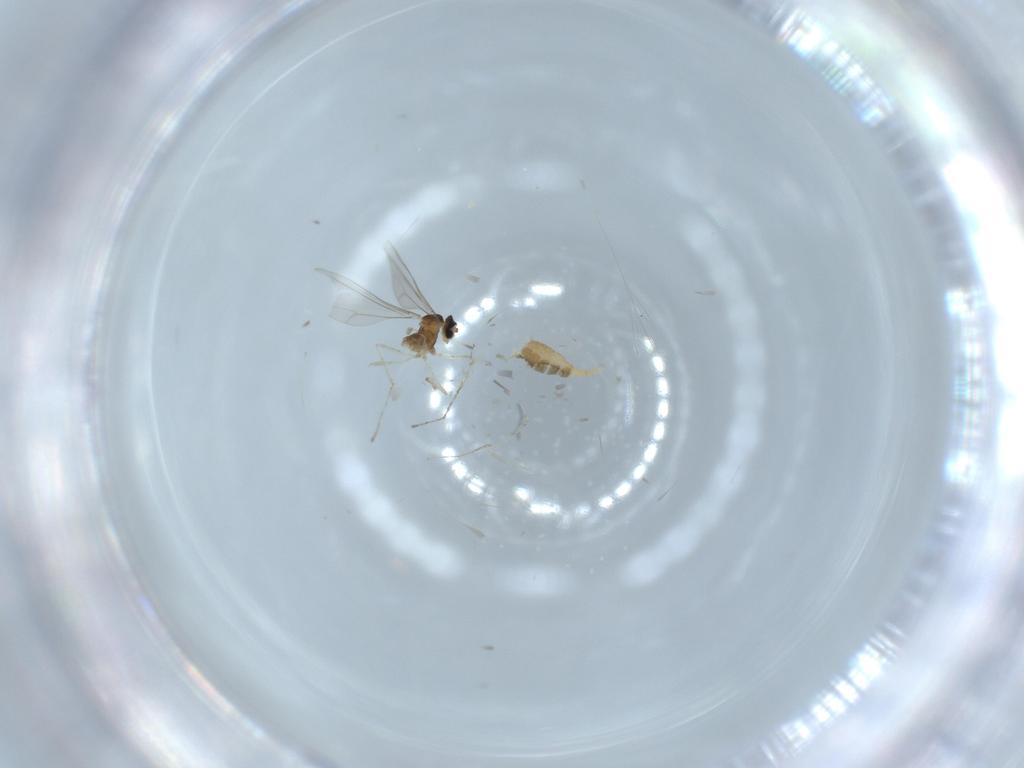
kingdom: Animalia
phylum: Arthropoda
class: Insecta
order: Diptera
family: Cecidomyiidae
